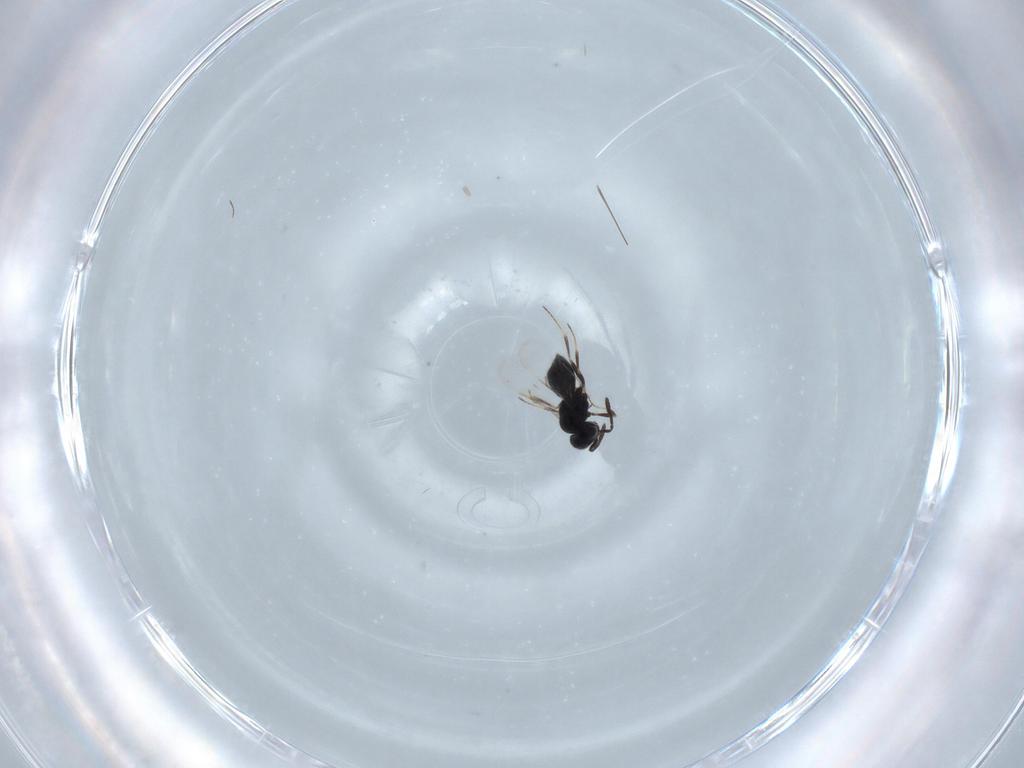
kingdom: Animalia
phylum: Arthropoda
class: Insecta
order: Hymenoptera
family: Scelionidae
